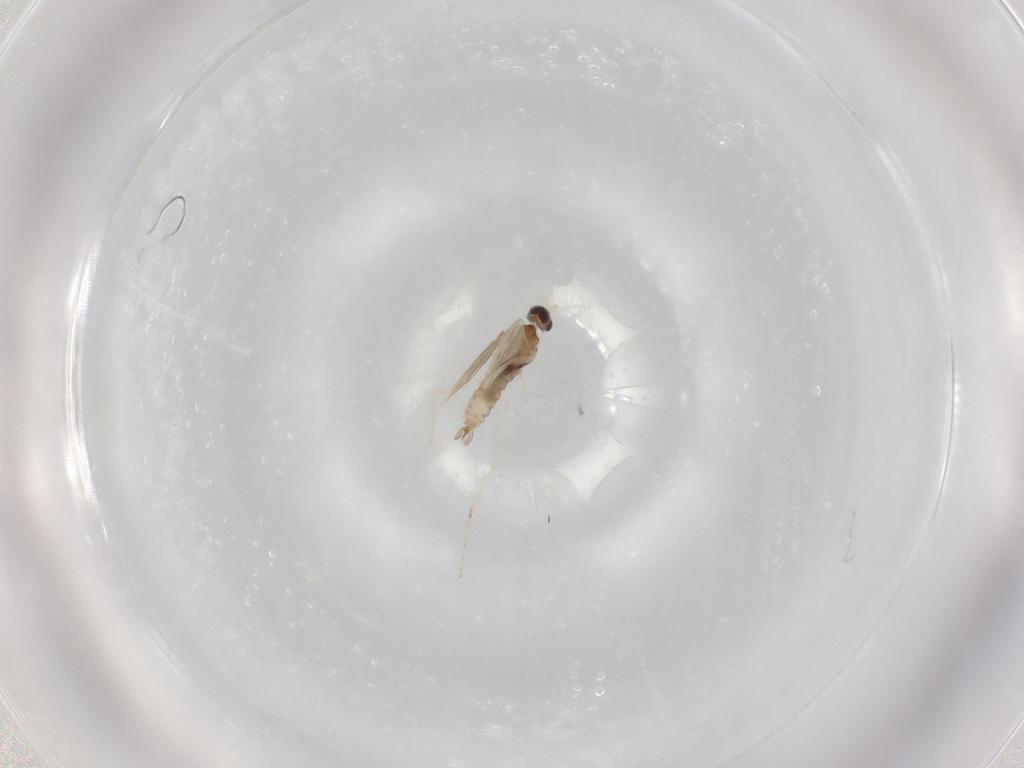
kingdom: Animalia
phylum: Arthropoda
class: Insecta
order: Diptera
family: Cecidomyiidae
